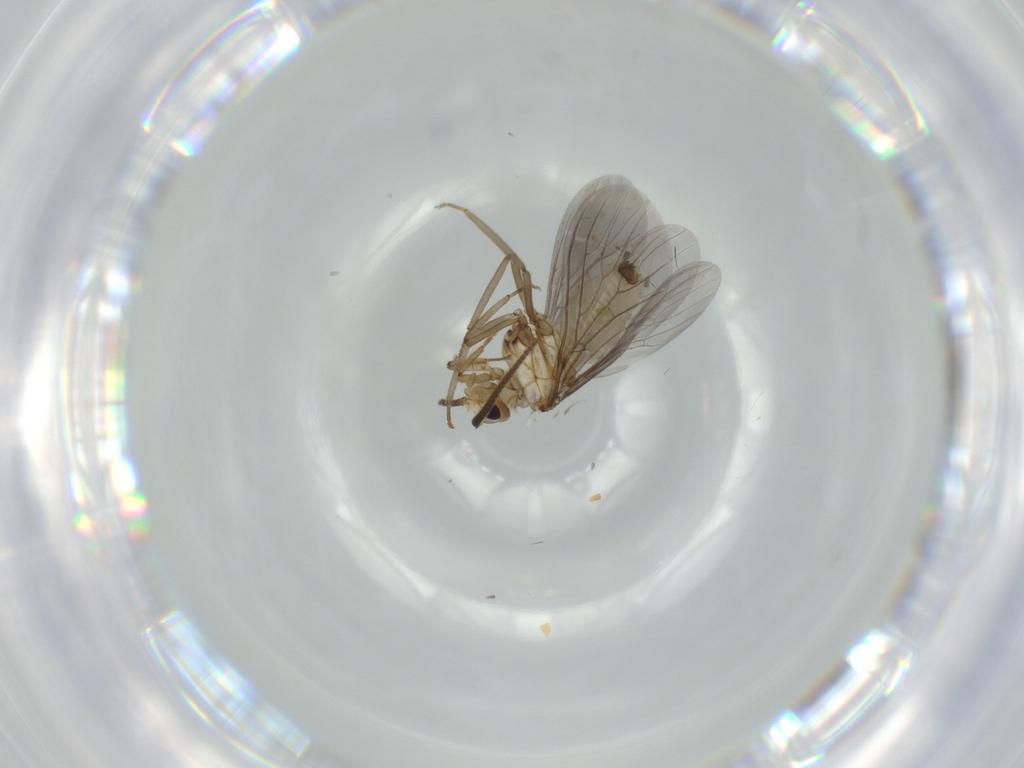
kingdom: Animalia
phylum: Arthropoda
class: Insecta
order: Neuroptera
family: Coniopterygidae
